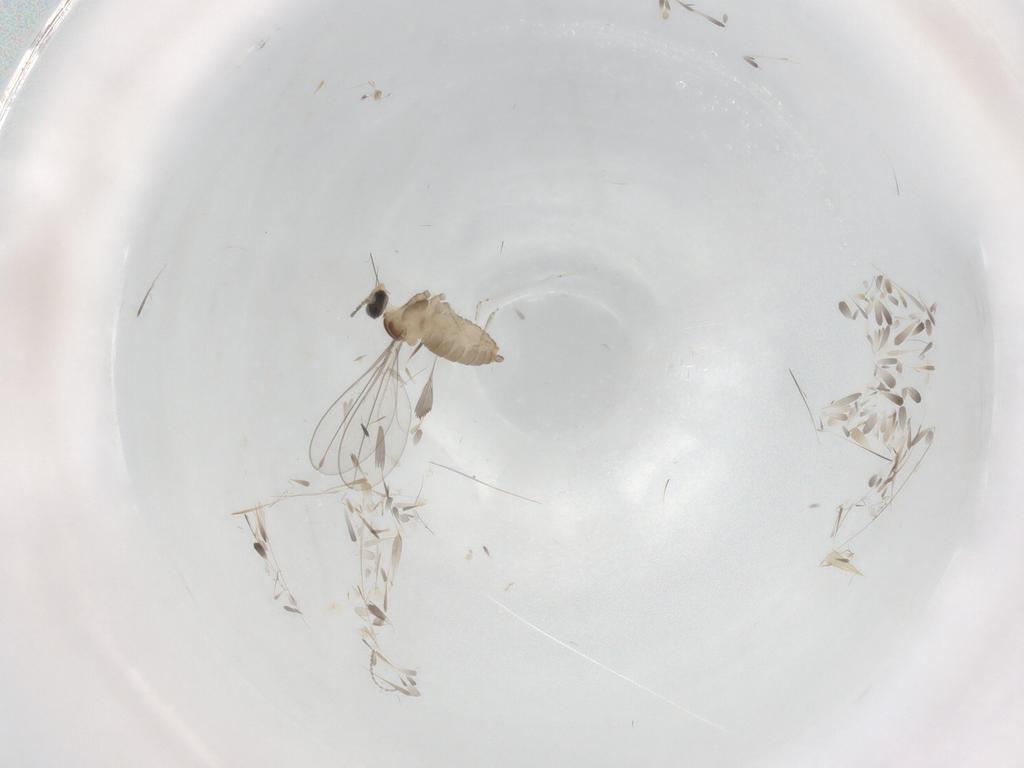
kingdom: Animalia
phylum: Arthropoda
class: Insecta
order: Diptera
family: Cecidomyiidae
